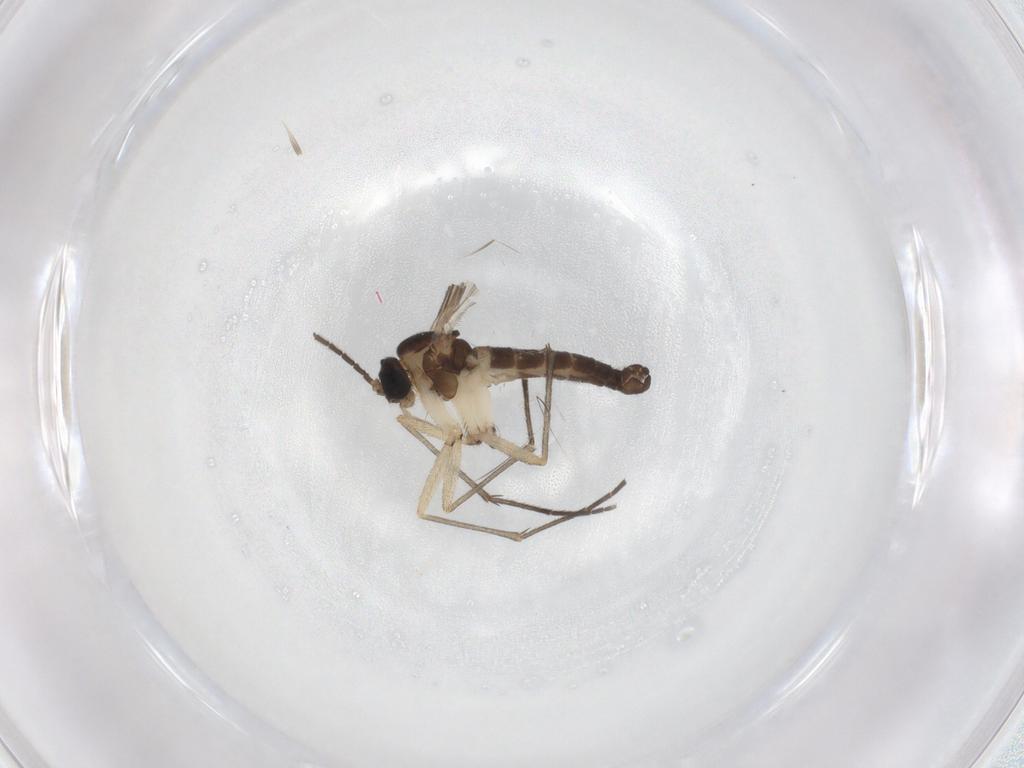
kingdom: Animalia
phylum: Arthropoda
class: Insecta
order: Diptera
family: Sciaridae
